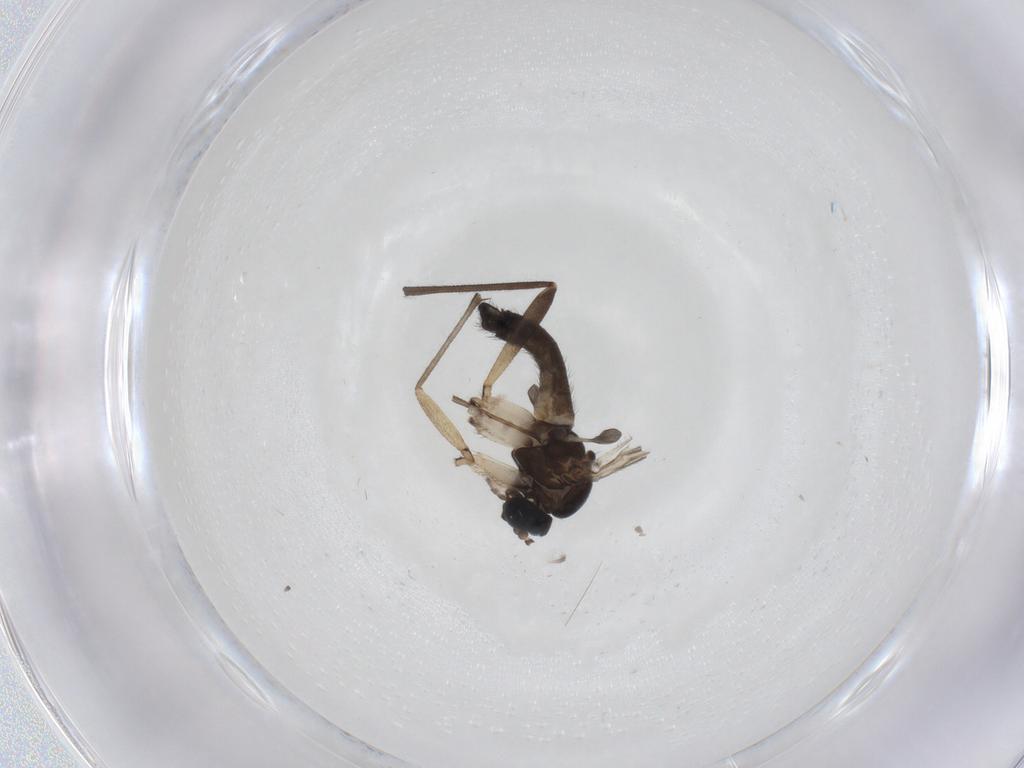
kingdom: Animalia
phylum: Arthropoda
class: Insecta
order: Diptera
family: Sciaridae
